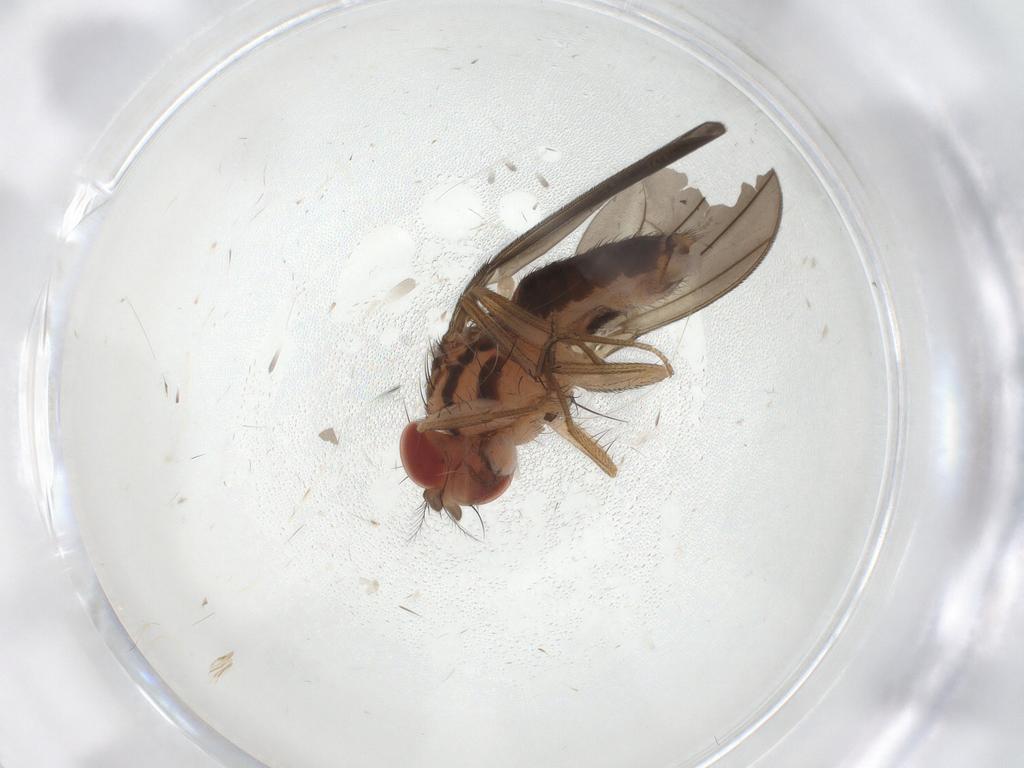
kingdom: Animalia
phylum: Arthropoda
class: Insecta
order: Diptera
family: Drosophilidae
